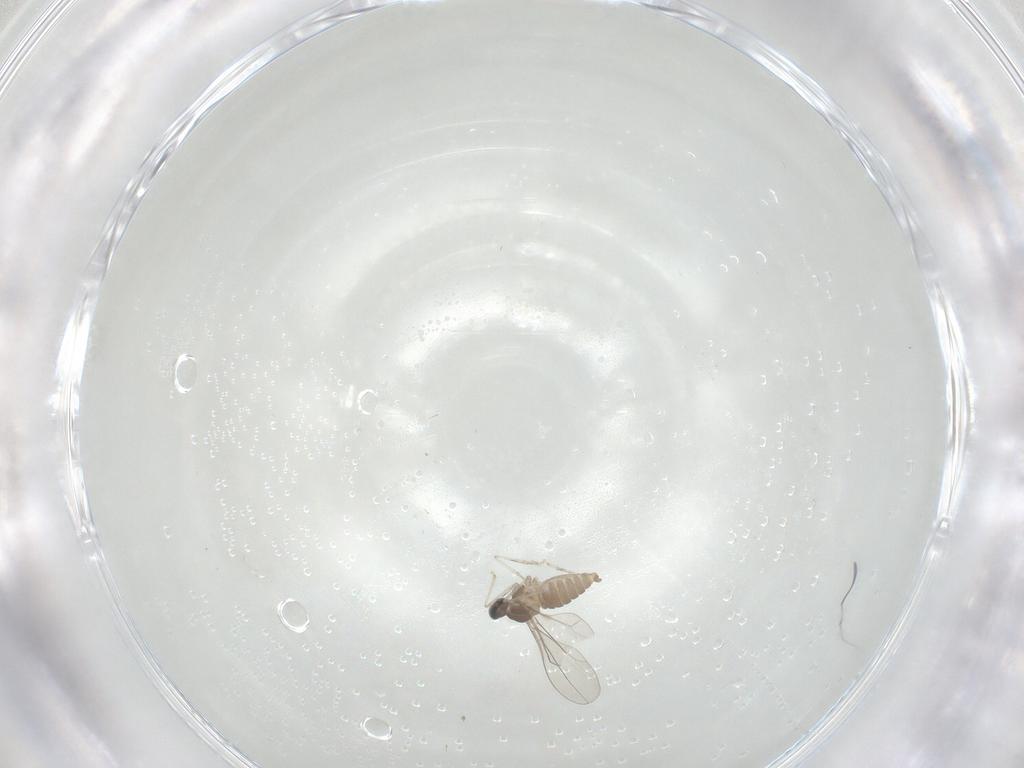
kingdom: Animalia
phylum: Arthropoda
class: Insecta
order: Diptera
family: Cecidomyiidae
